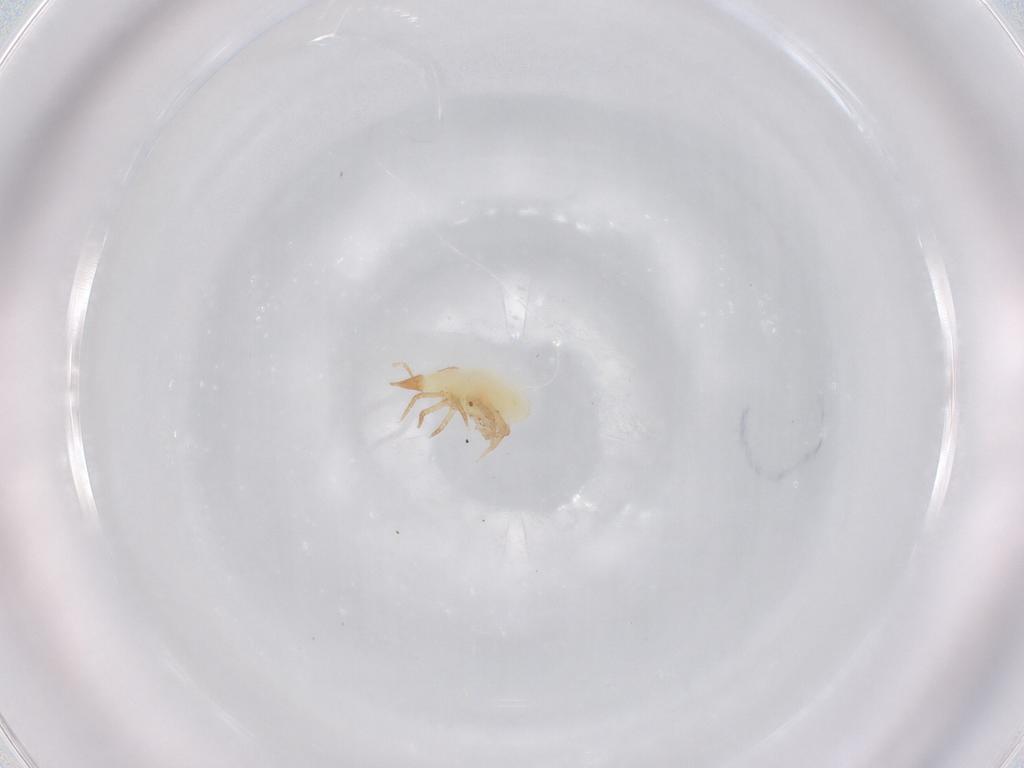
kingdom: Animalia
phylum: Arthropoda
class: Arachnida
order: Trombidiformes
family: Bdellidae
